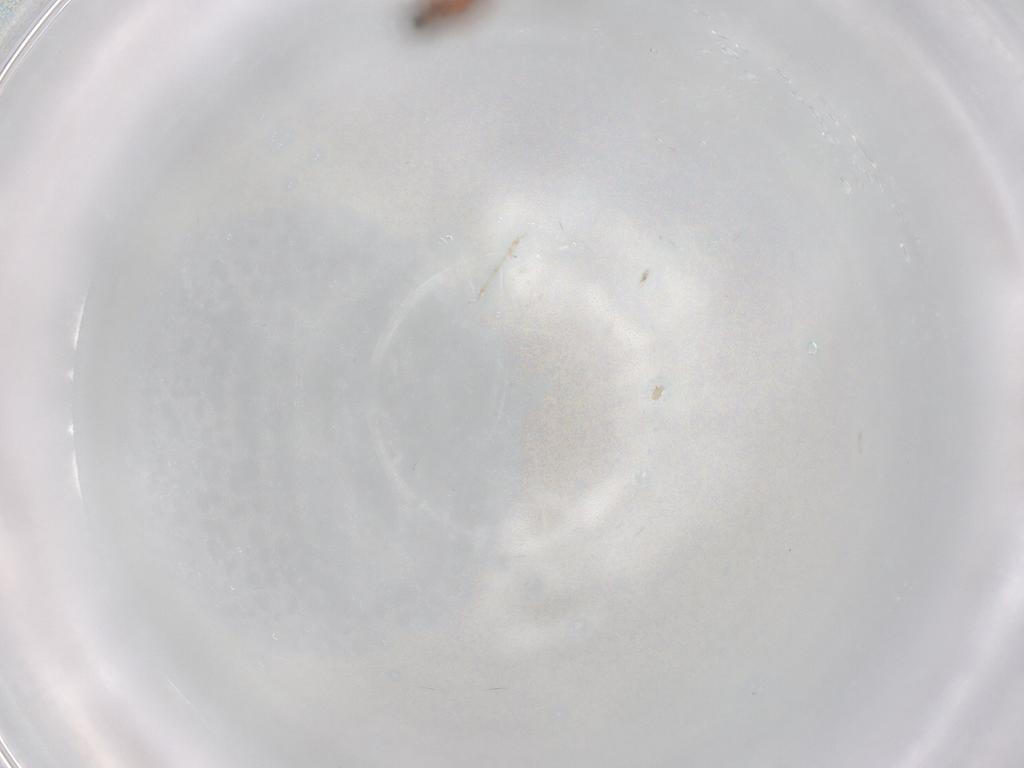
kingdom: Animalia
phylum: Arthropoda
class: Insecta
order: Diptera
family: Cecidomyiidae
